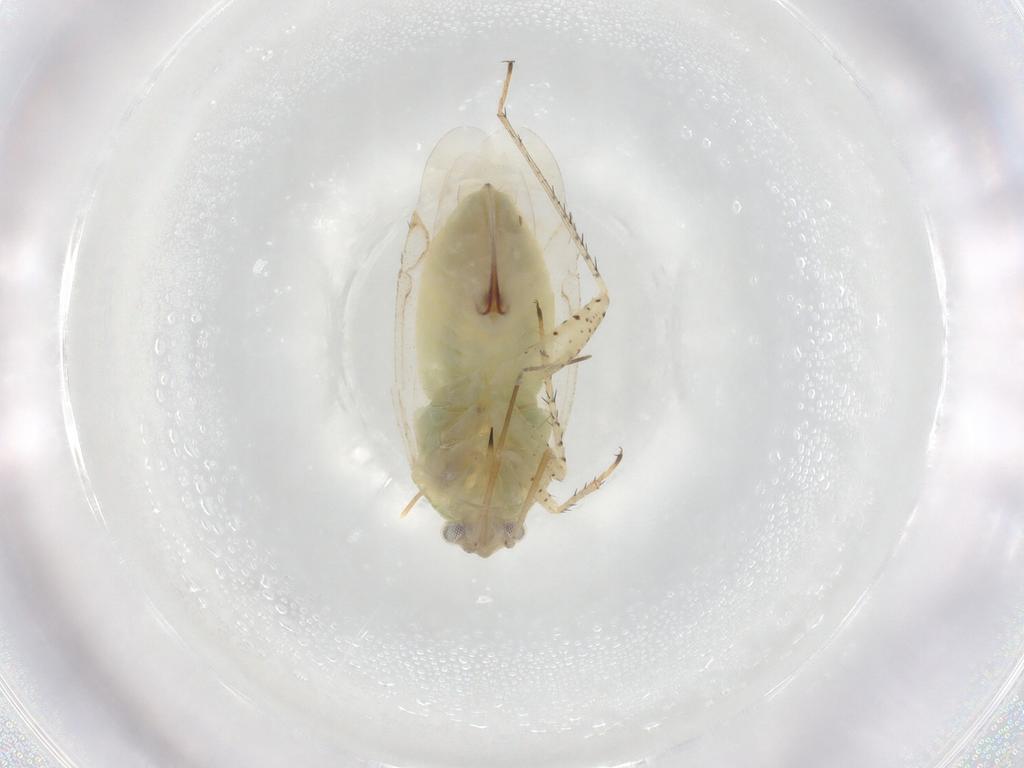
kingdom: Animalia
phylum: Arthropoda
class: Insecta
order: Hemiptera
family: Miridae
